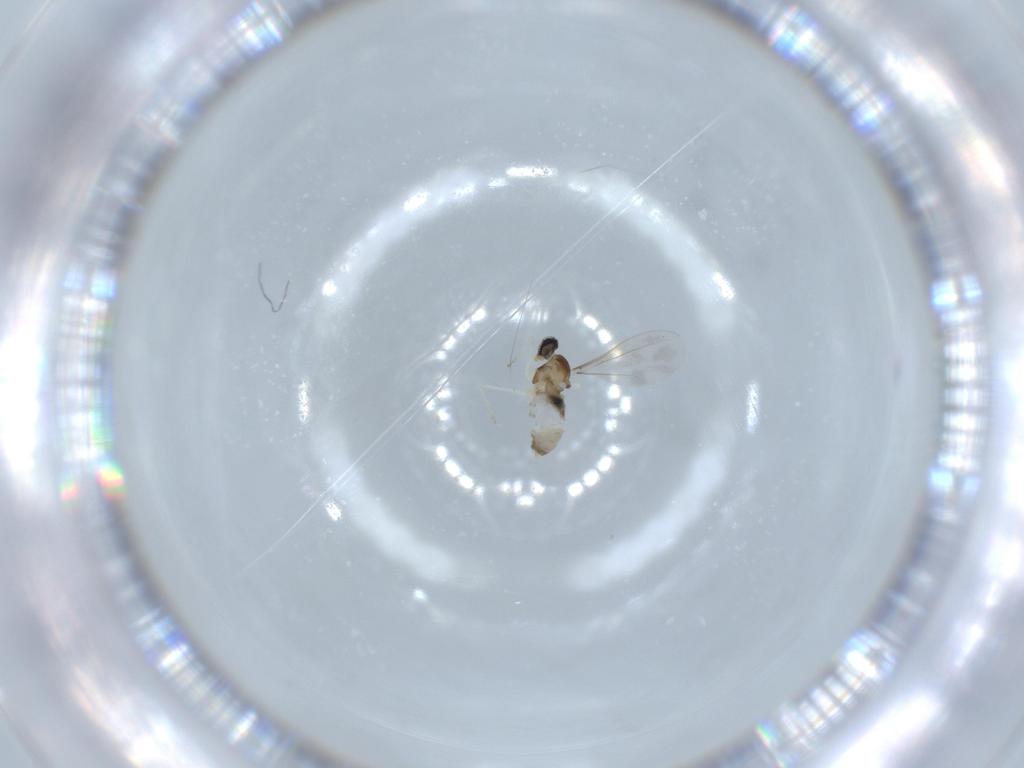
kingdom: Animalia
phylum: Arthropoda
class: Insecta
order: Diptera
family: Cecidomyiidae
